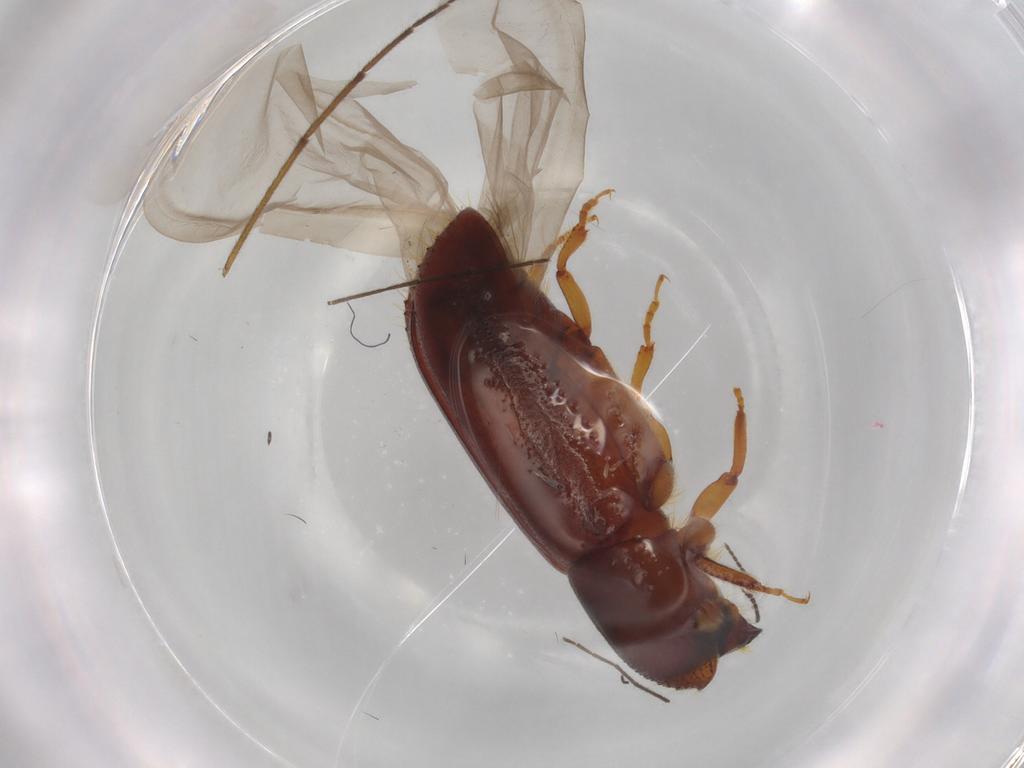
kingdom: Animalia
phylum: Arthropoda
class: Insecta
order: Coleoptera
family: Curculionidae
